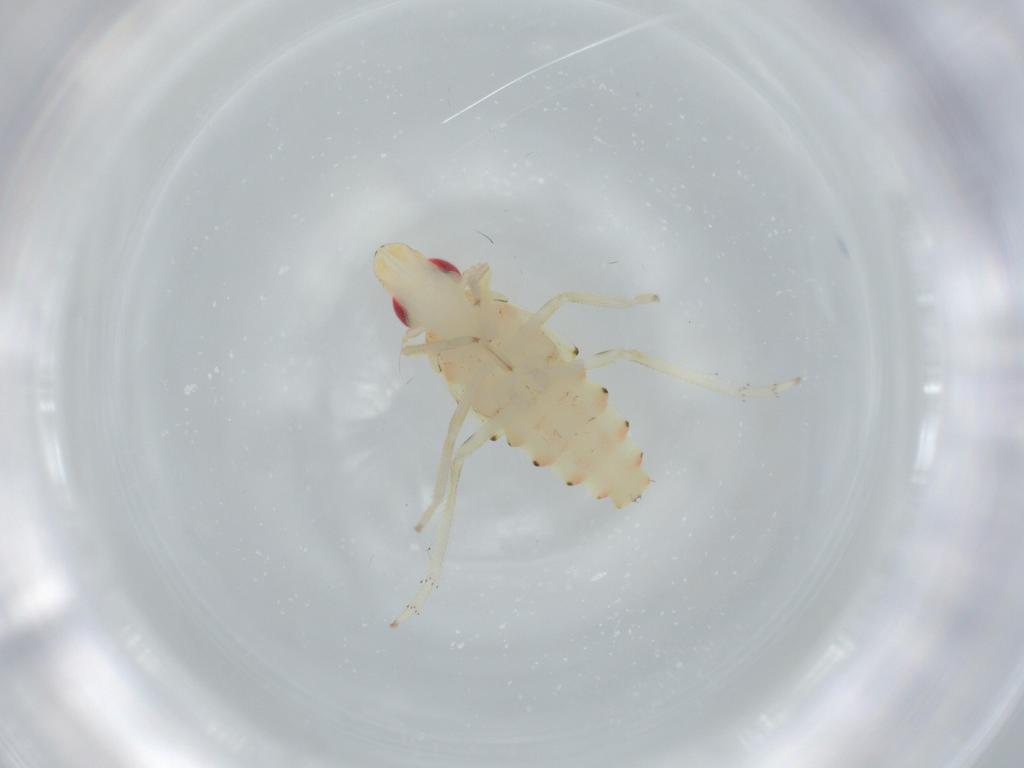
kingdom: Animalia
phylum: Arthropoda
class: Insecta
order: Hemiptera
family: Tropiduchidae
